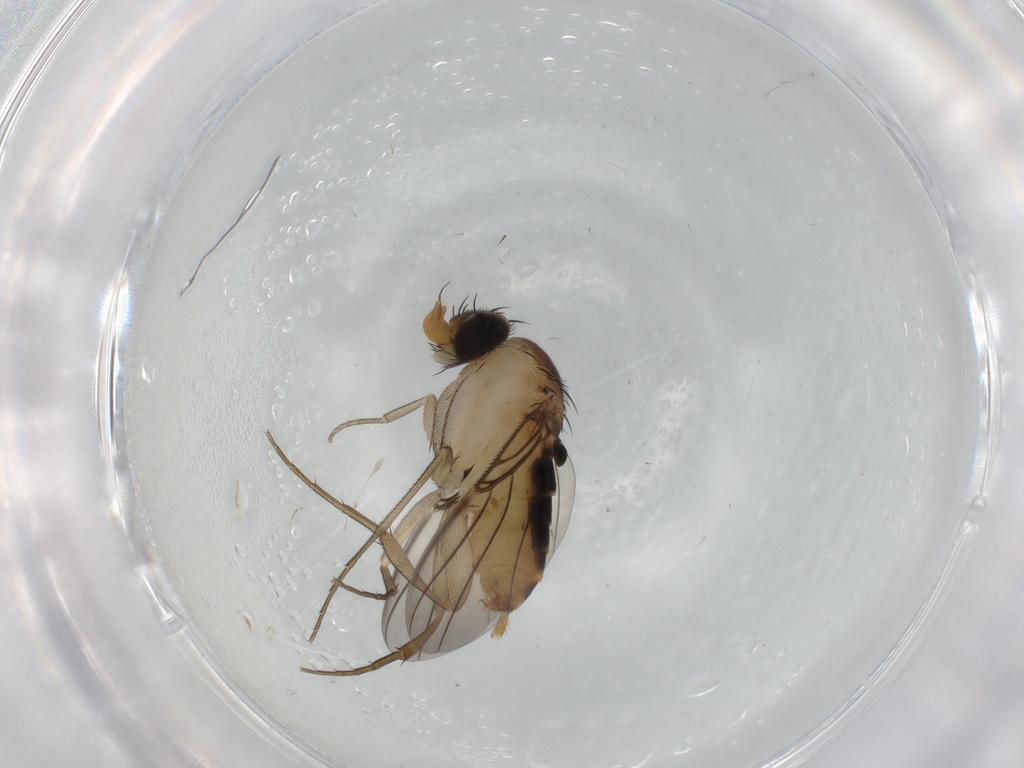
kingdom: Animalia
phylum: Arthropoda
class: Insecta
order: Diptera
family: Phoridae
